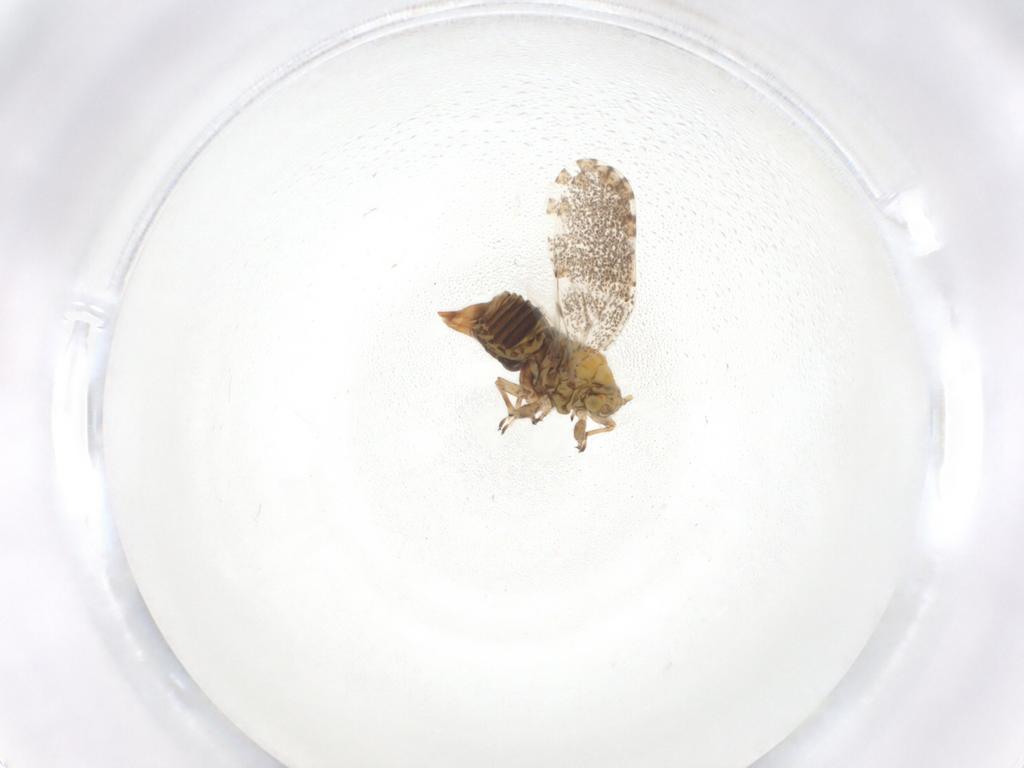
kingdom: Animalia
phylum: Arthropoda
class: Insecta
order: Hemiptera
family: Psylloidea_incertae_sedis
